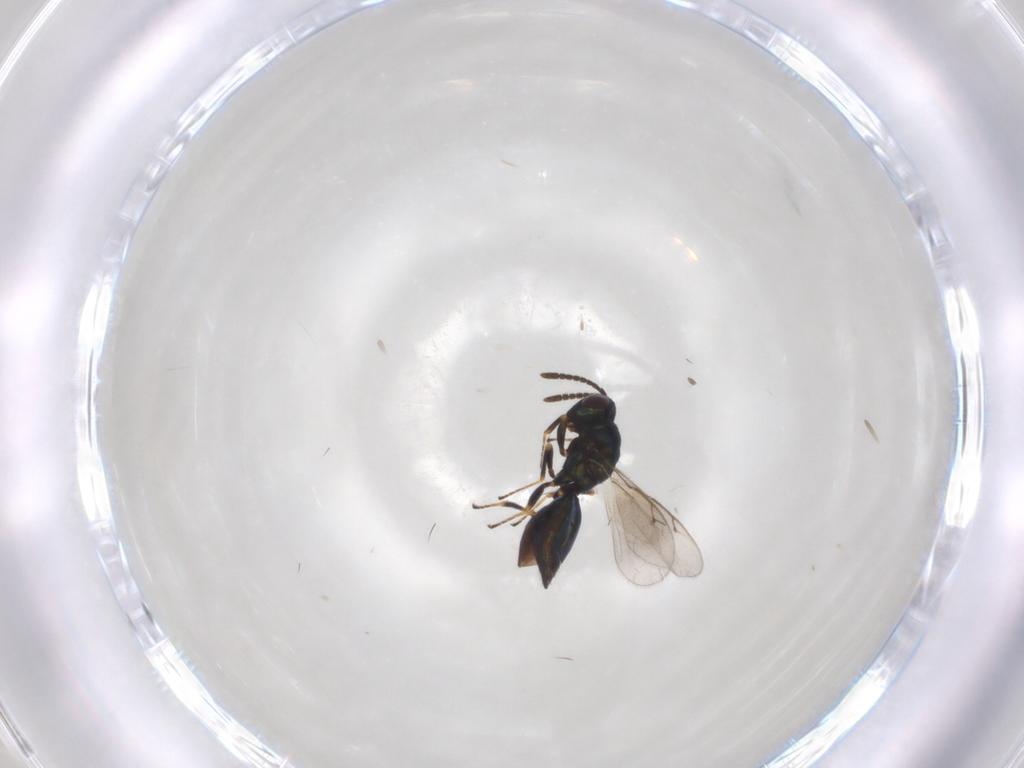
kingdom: Animalia
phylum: Arthropoda
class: Insecta
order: Hymenoptera
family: Pteromalidae
